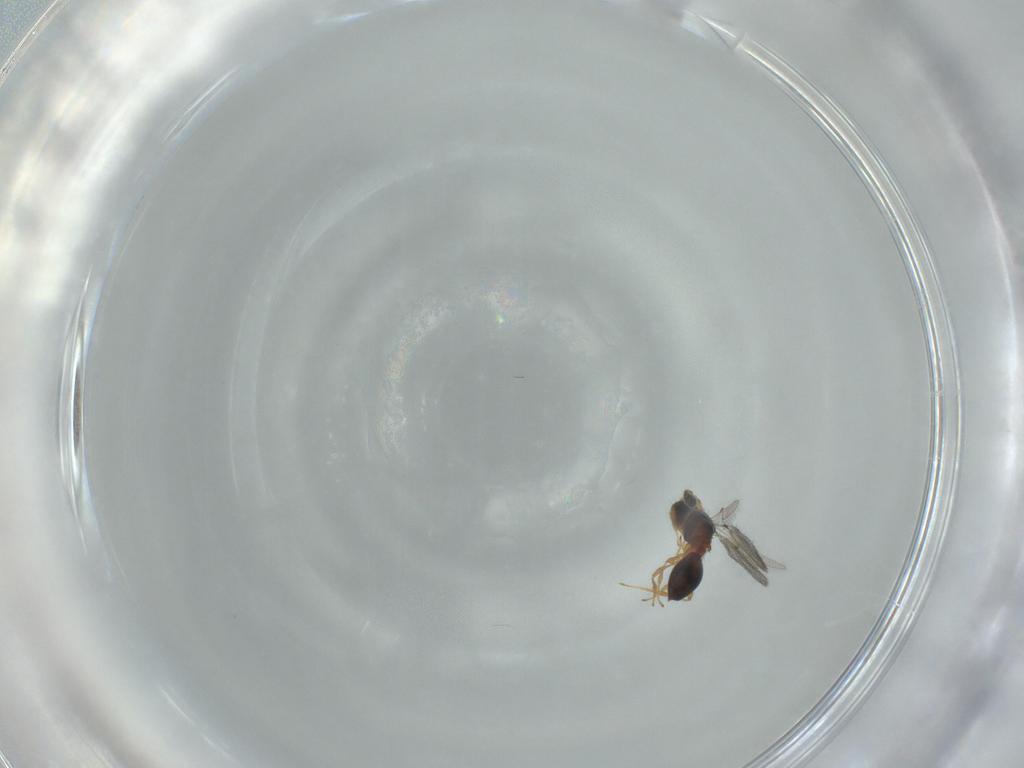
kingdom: Animalia
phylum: Arthropoda
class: Insecta
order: Hymenoptera
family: Diapriidae
